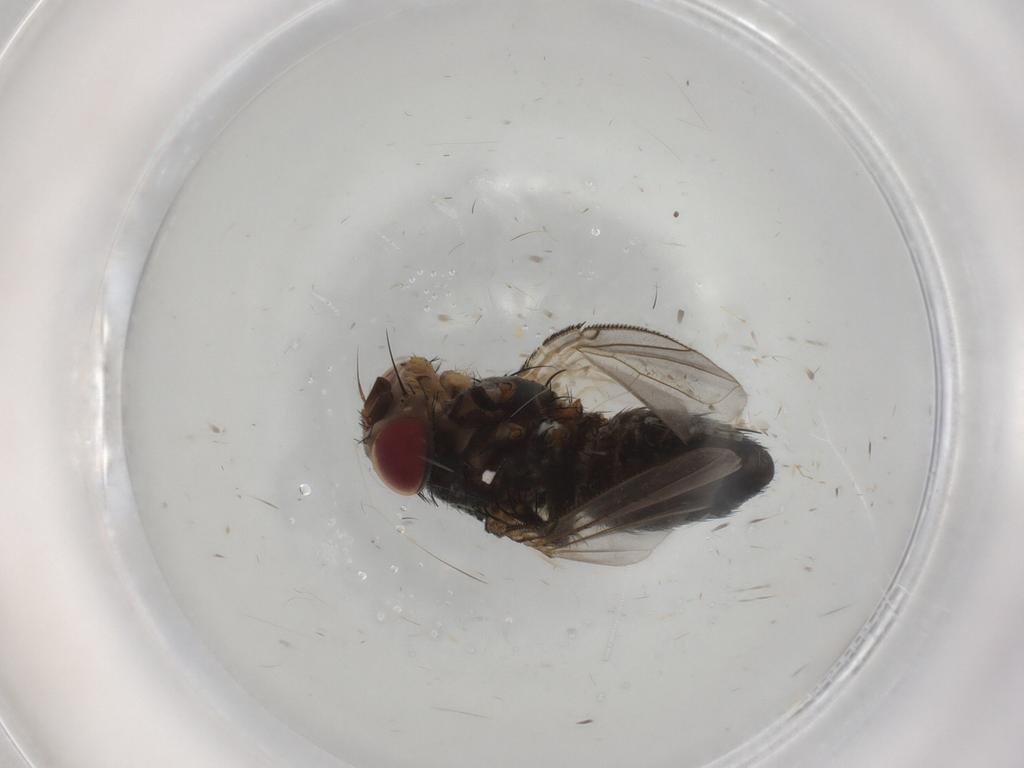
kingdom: Animalia
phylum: Arthropoda
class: Insecta
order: Diptera
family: Tachinidae
